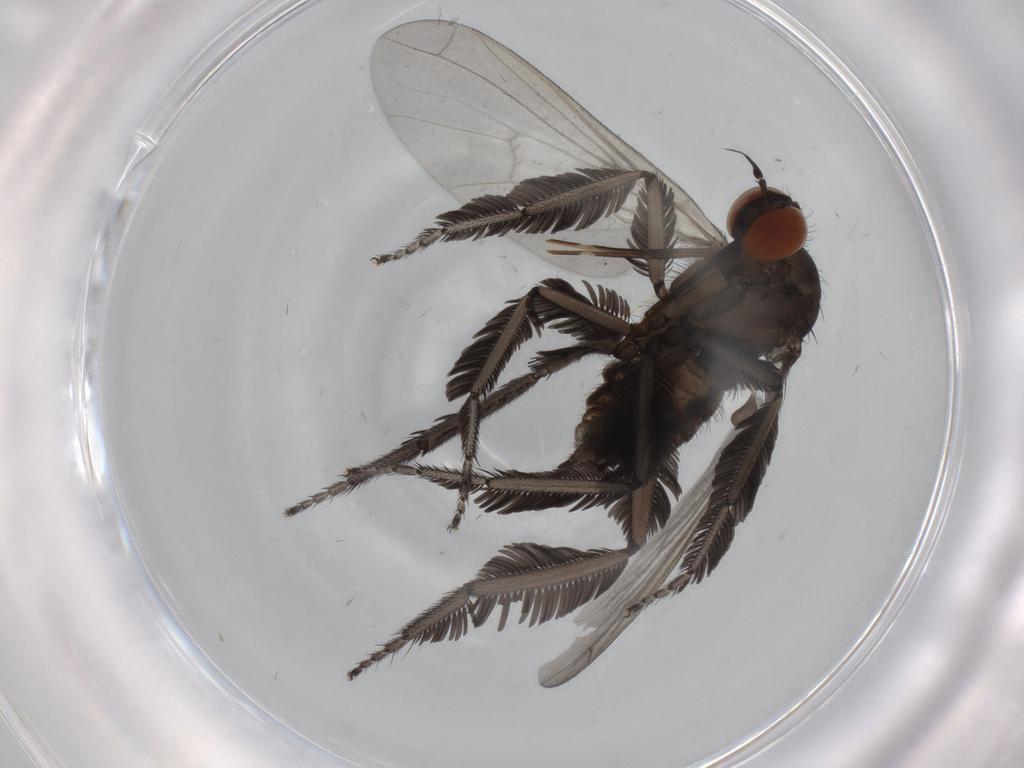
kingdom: Animalia
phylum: Arthropoda
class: Insecta
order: Diptera
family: Empididae
